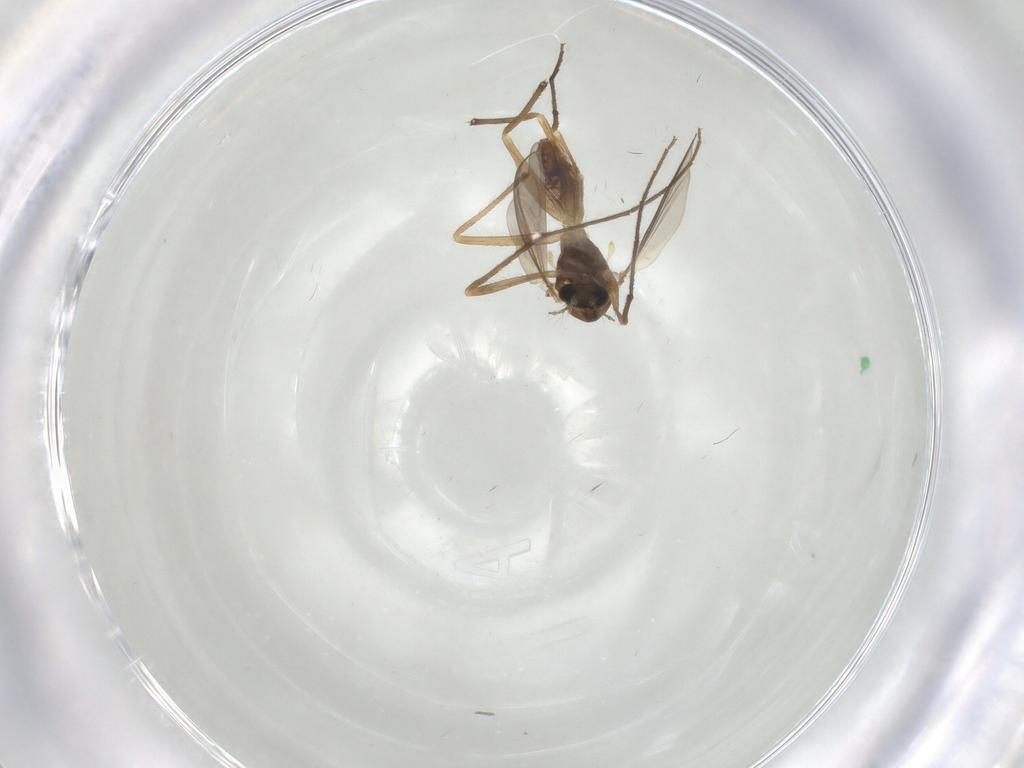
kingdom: Animalia
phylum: Arthropoda
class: Insecta
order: Diptera
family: Chironomidae
